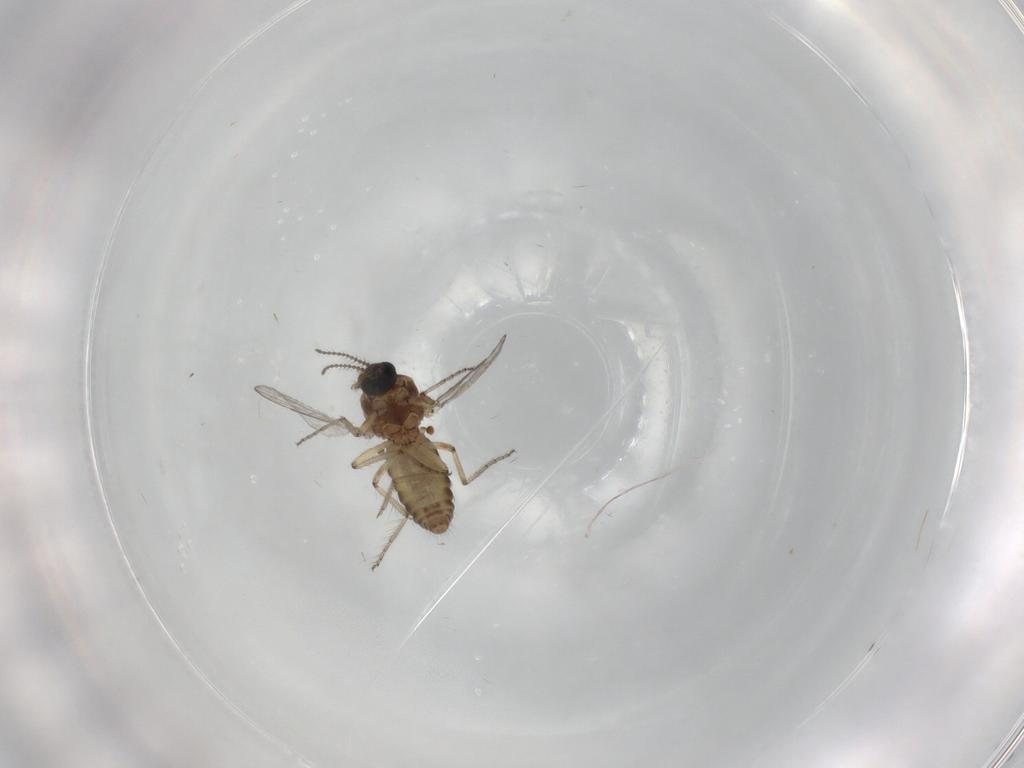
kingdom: Animalia
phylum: Arthropoda
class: Insecta
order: Diptera
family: Ceratopogonidae
